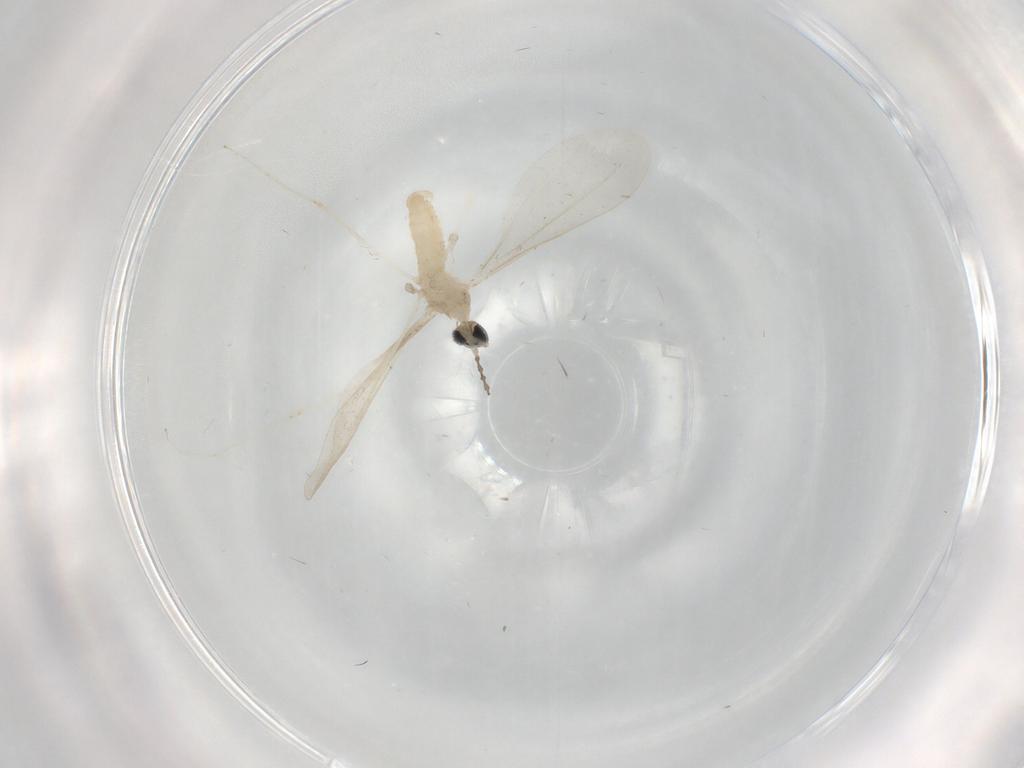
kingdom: Animalia
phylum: Arthropoda
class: Insecta
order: Diptera
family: Cecidomyiidae
